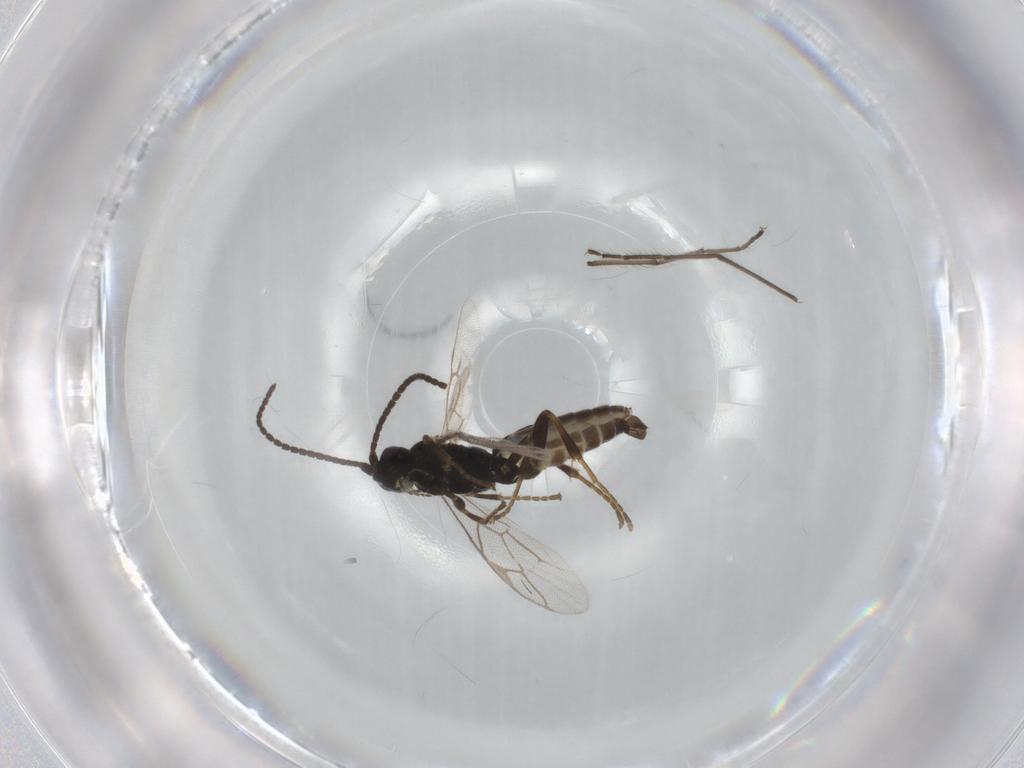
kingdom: Animalia
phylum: Arthropoda
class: Insecta
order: Hymenoptera
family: Ichneumonidae
